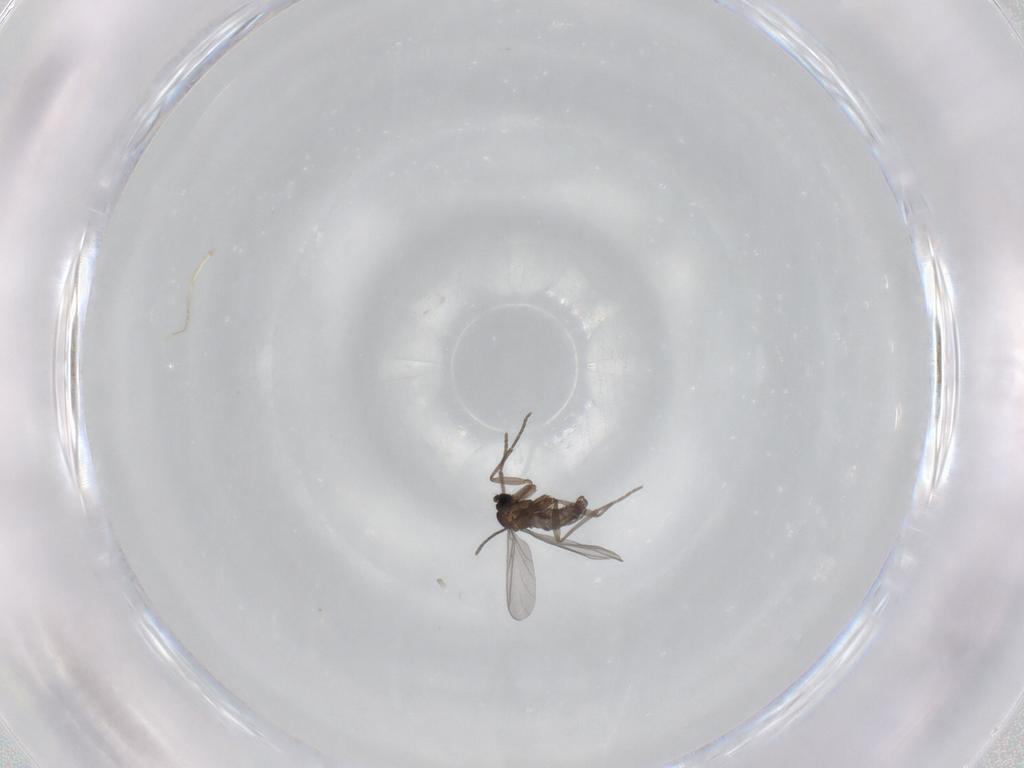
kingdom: Animalia
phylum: Arthropoda
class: Insecta
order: Diptera
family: Sciaridae
